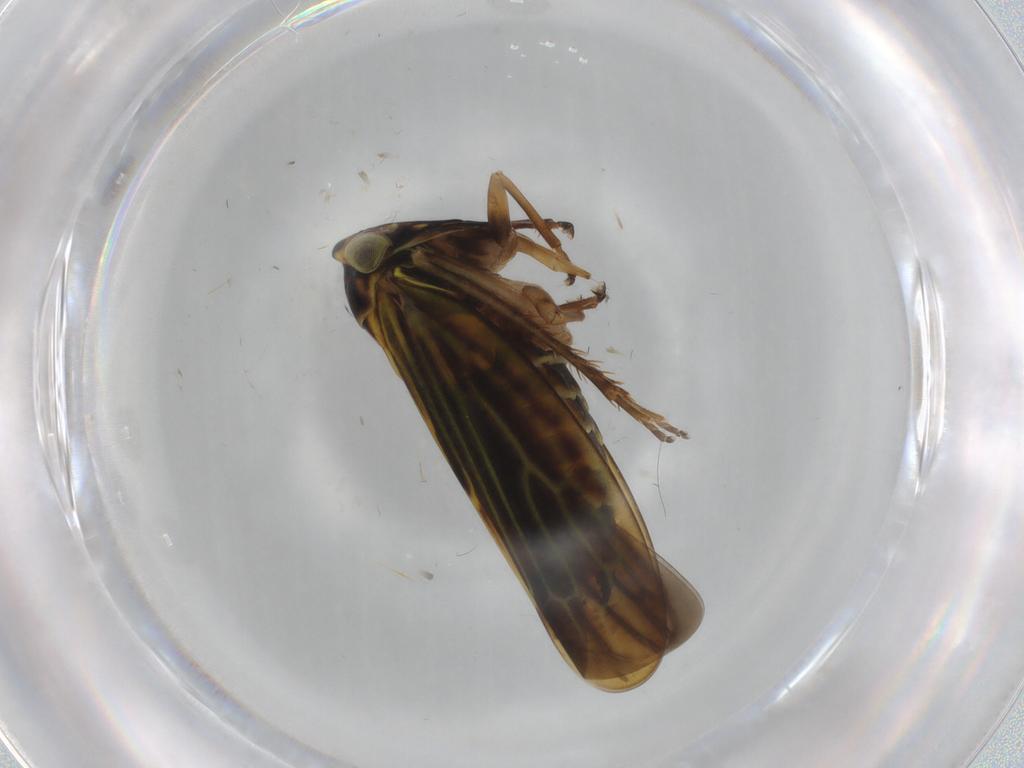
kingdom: Animalia
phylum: Arthropoda
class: Insecta
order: Hemiptera
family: Cicadellidae
